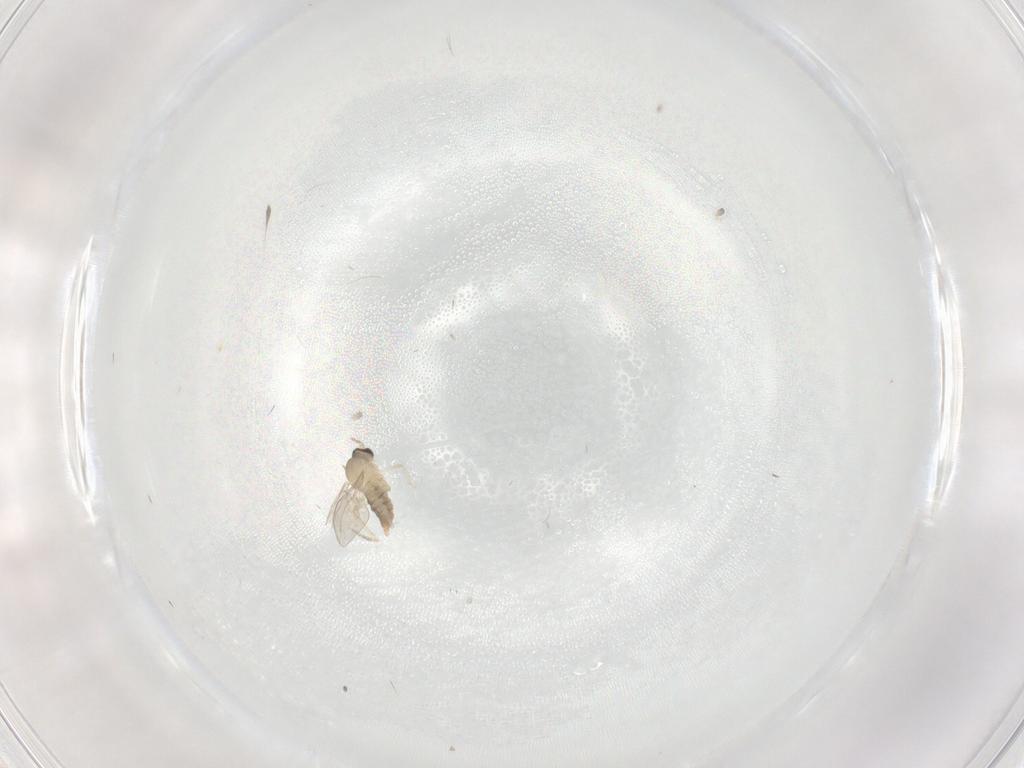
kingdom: Animalia
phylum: Arthropoda
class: Insecta
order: Diptera
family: Cecidomyiidae
